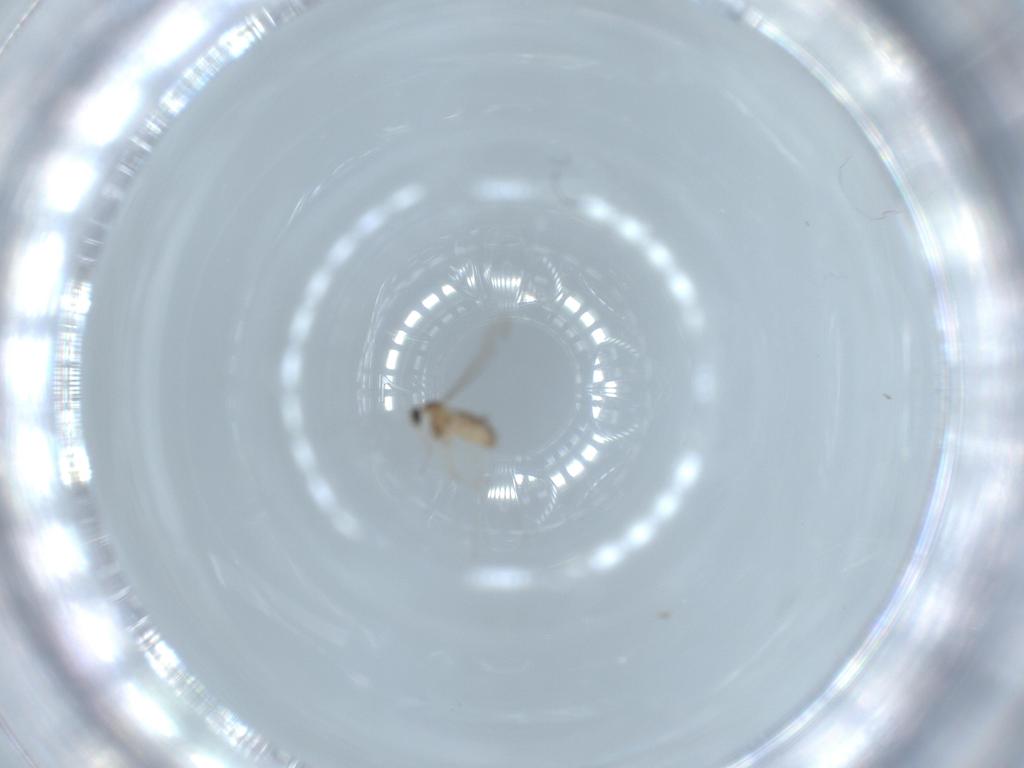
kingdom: Animalia
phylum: Arthropoda
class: Insecta
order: Diptera
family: Cecidomyiidae
